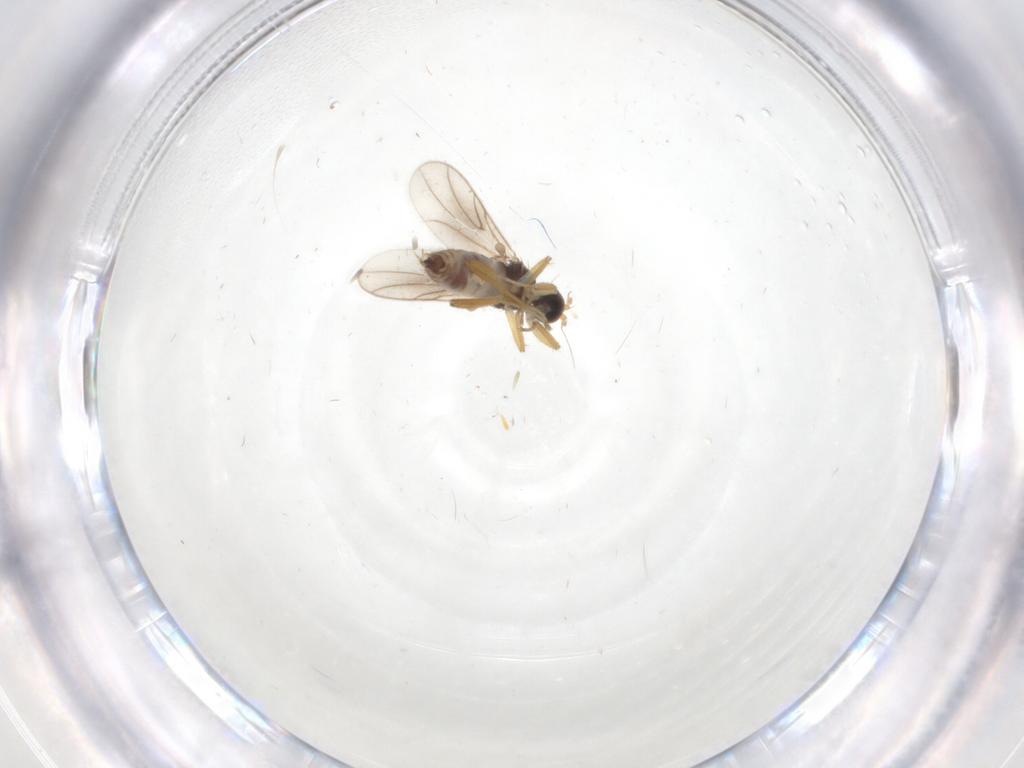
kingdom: Animalia
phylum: Arthropoda
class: Insecta
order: Diptera
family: Hybotidae
